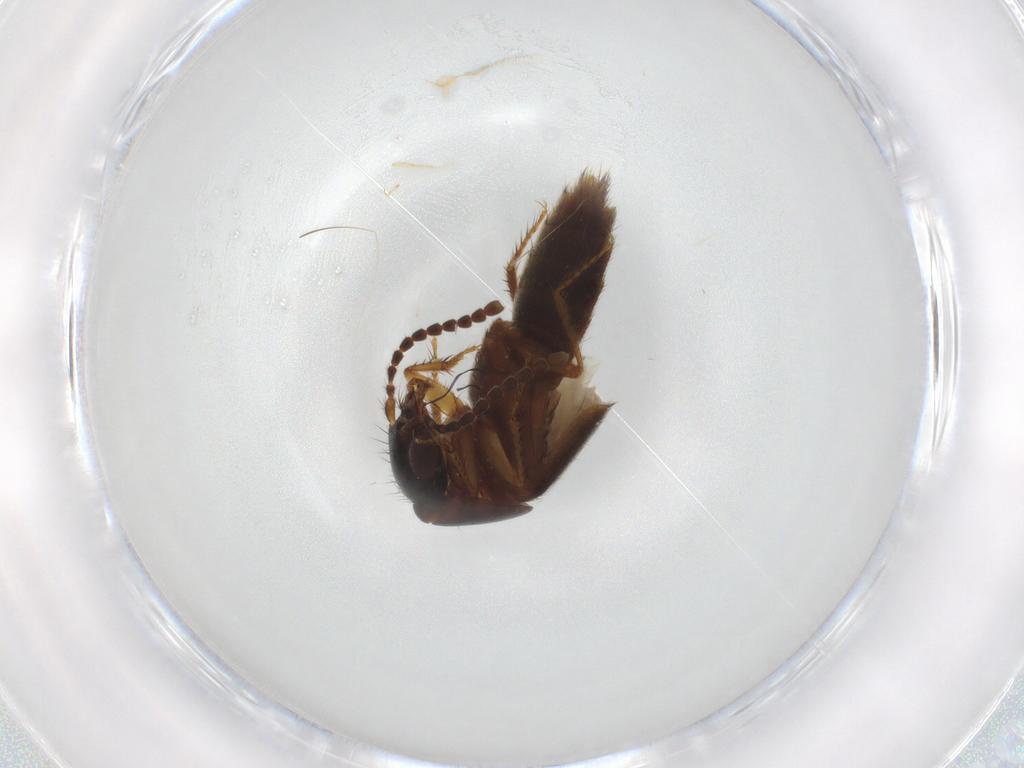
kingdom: Animalia
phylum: Arthropoda
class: Insecta
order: Coleoptera
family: Staphylinidae
